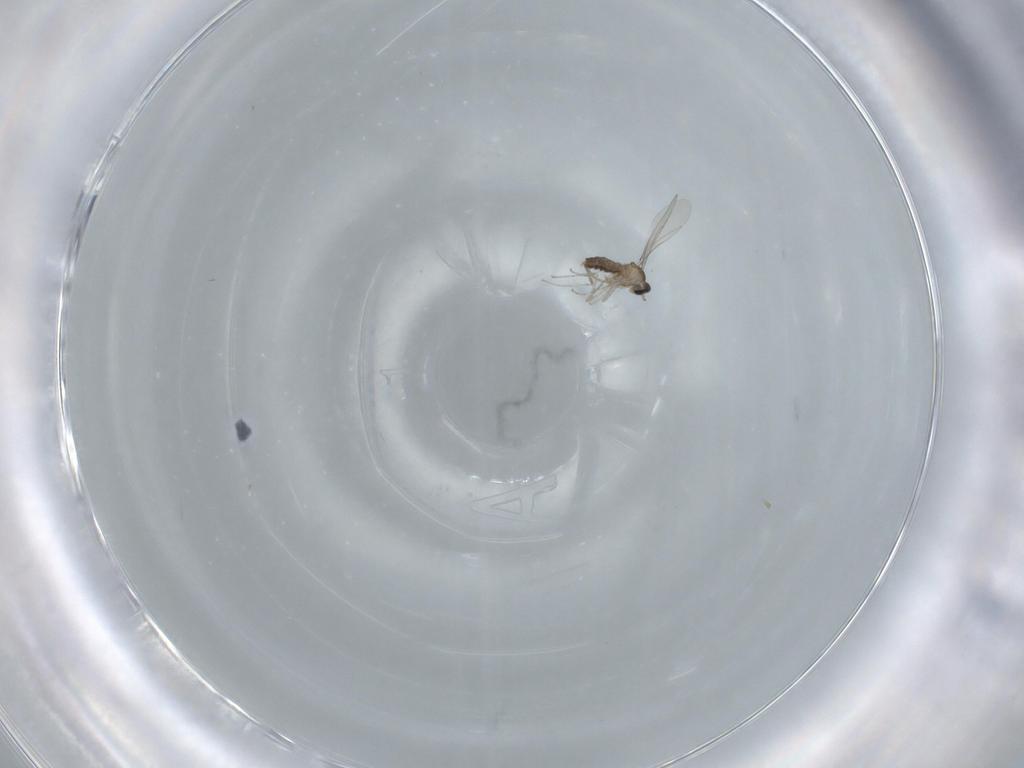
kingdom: Animalia
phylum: Arthropoda
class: Insecta
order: Diptera
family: Cecidomyiidae
